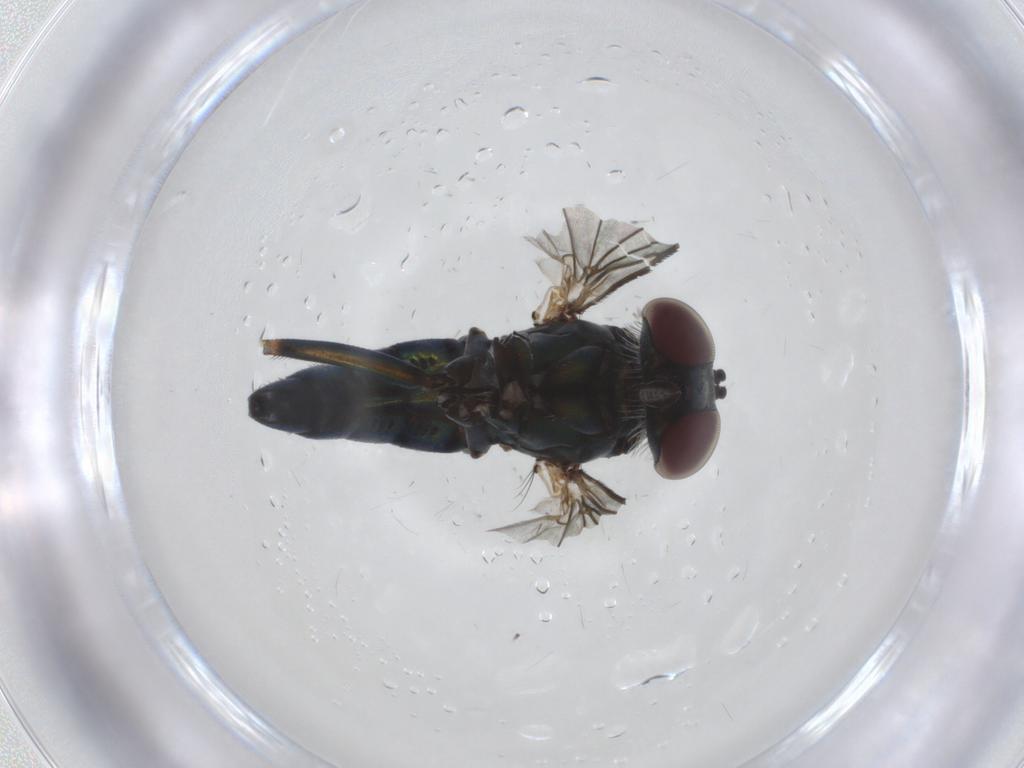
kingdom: Animalia
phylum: Arthropoda
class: Insecta
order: Diptera
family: Dolichopodidae
